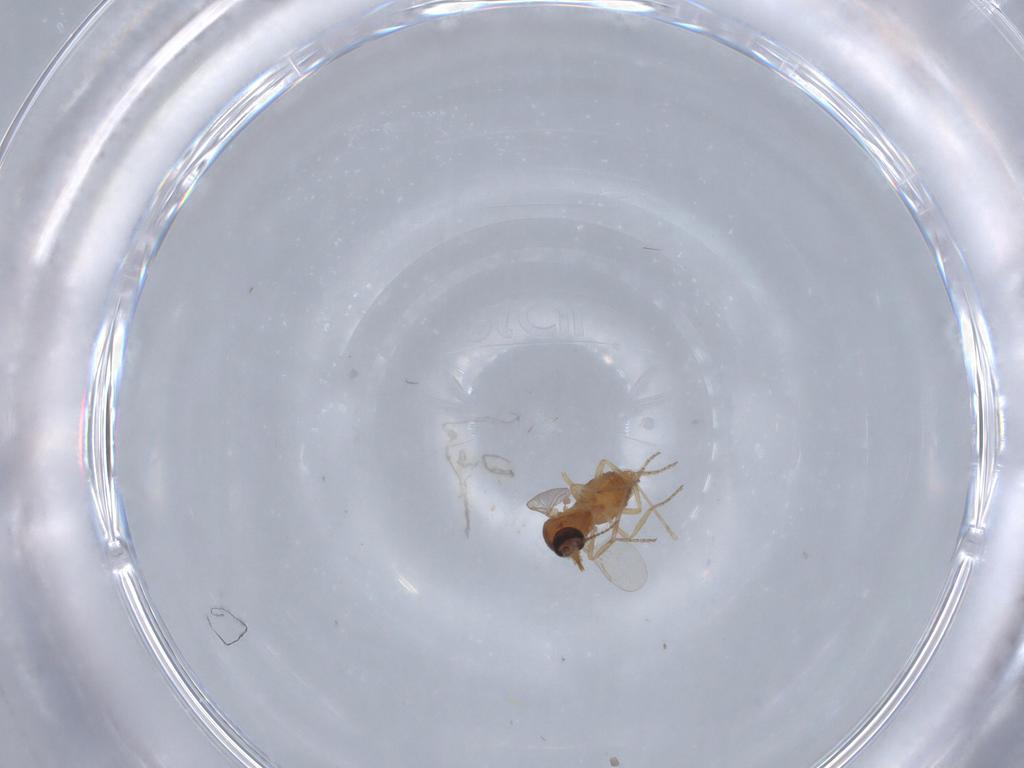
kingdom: Animalia
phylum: Arthropoda
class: Insecta
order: Diptera
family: Ceratopogonidae
